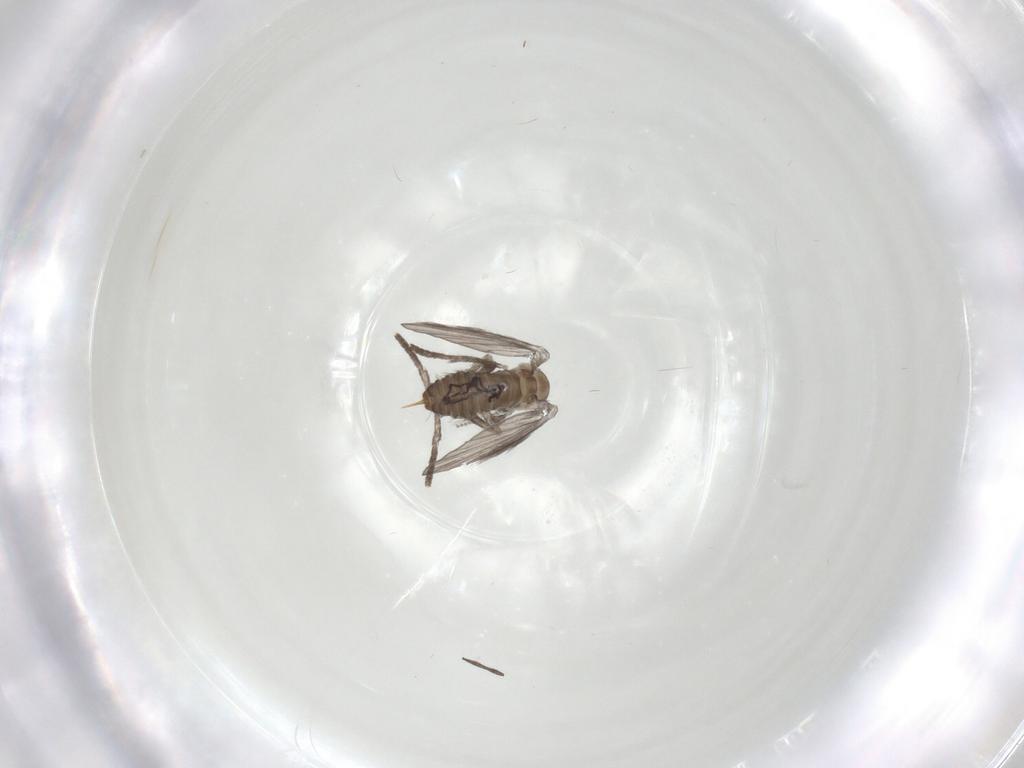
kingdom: Animalia
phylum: Arthropoda
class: Insecta
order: Diptera
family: Psychodidae
